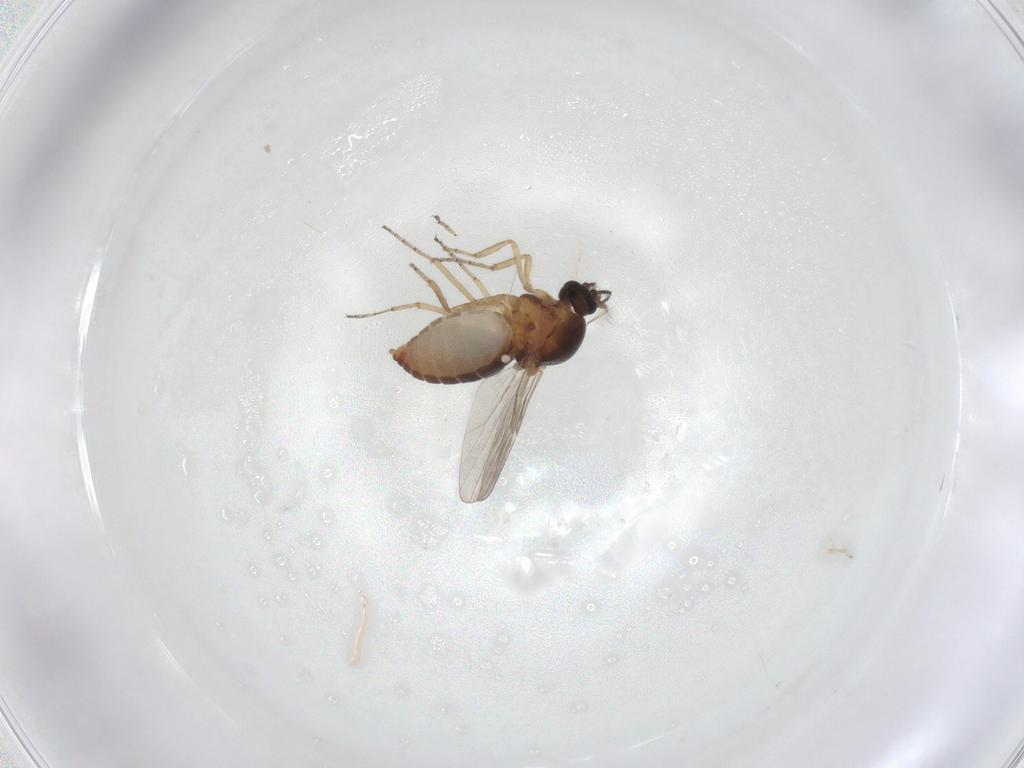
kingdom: Animalia
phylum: Arthropoda
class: Insecta
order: Diptera
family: Ceratopogonidae
